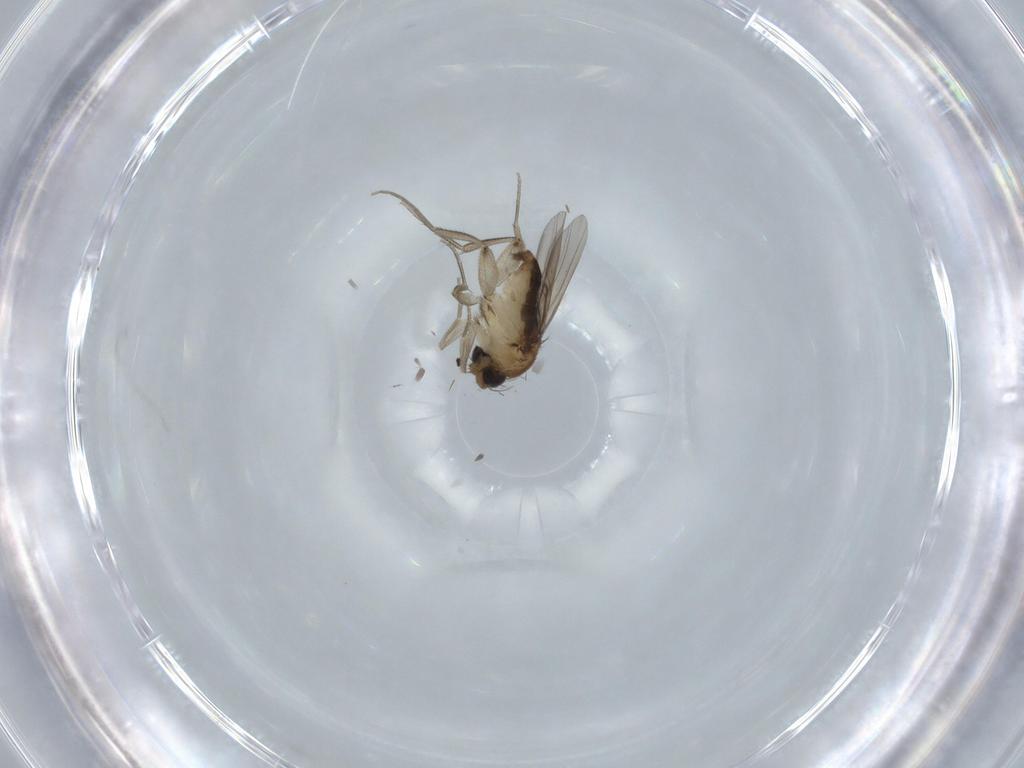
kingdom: Animalia
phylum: Arthropoda
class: Insecta
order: Diptera
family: Phoridae
